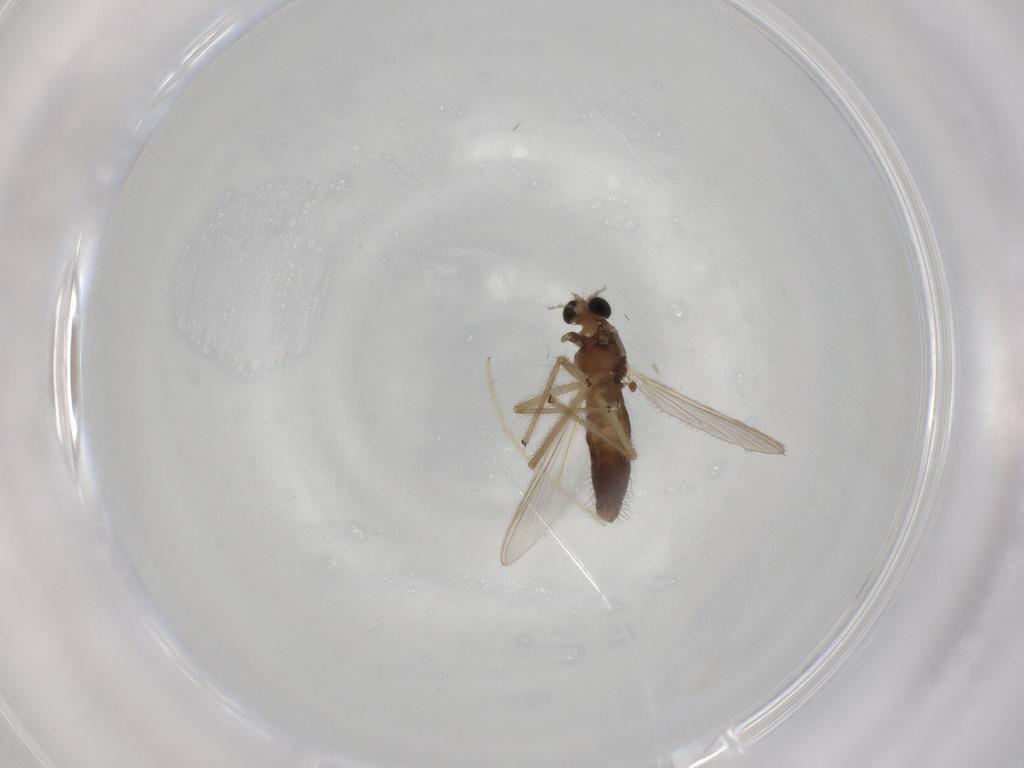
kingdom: Animalia
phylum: Arthropoda
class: Insecta
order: Diptera
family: Chironomidae
